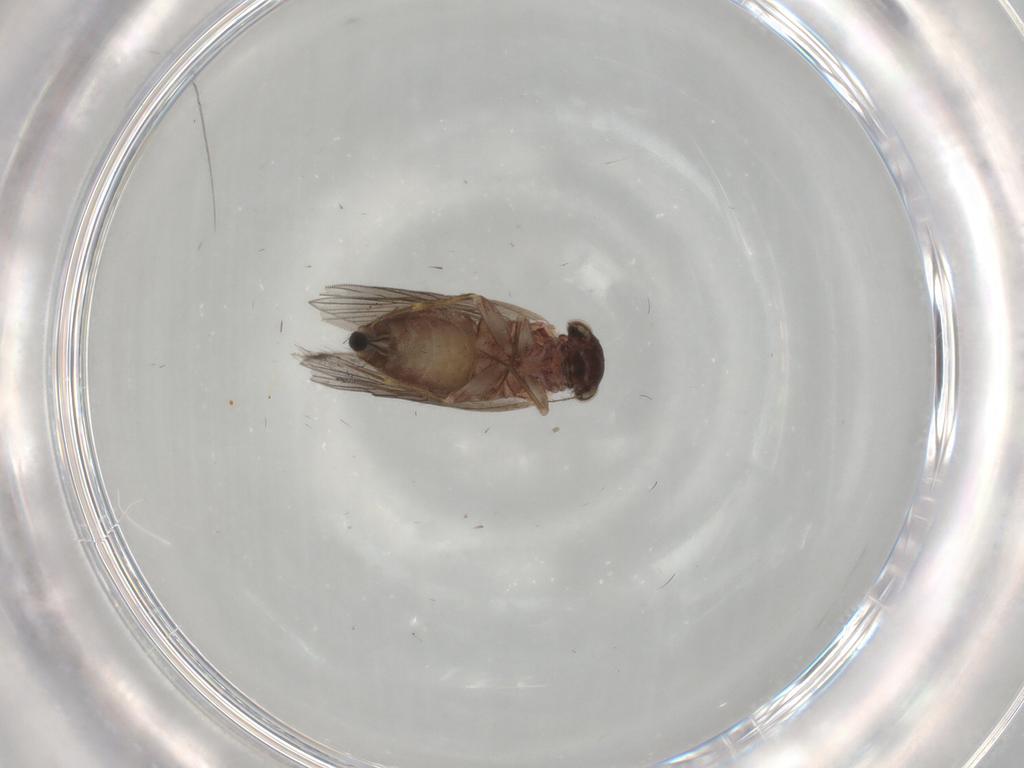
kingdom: Animalia
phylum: Arthropoda
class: Insecta
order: Psocodea
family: Lepidopsocidae
